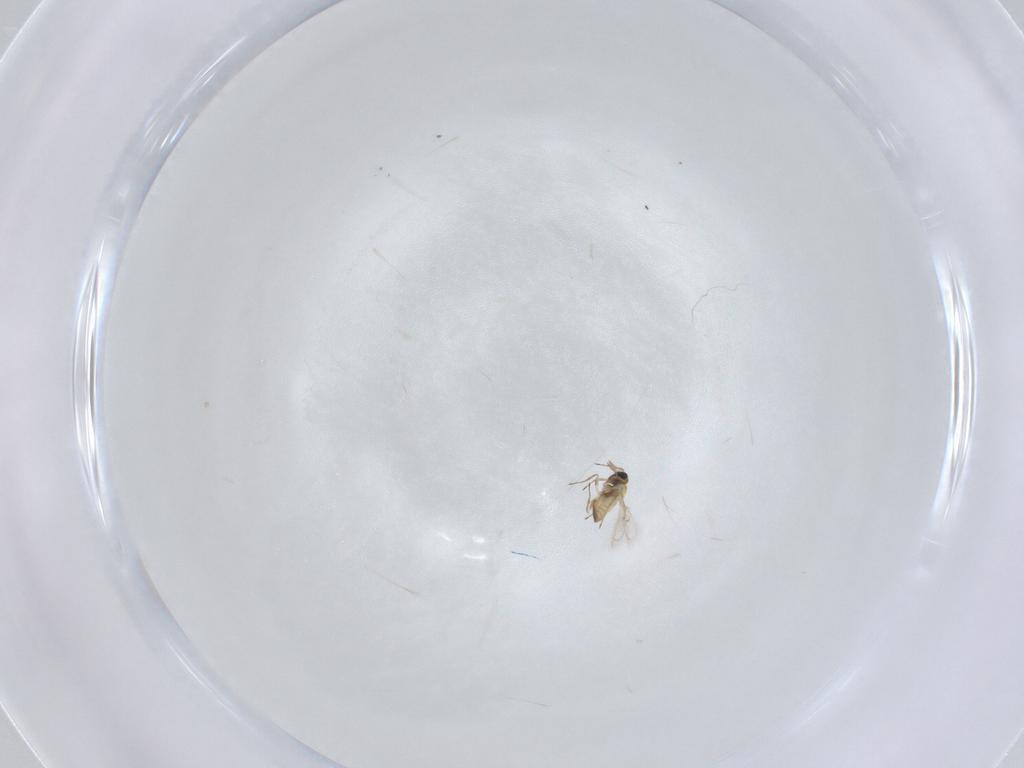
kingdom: Animalia
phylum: Arthropoda
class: Insecta
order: Hymenoptera
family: Trichogrammatidae
